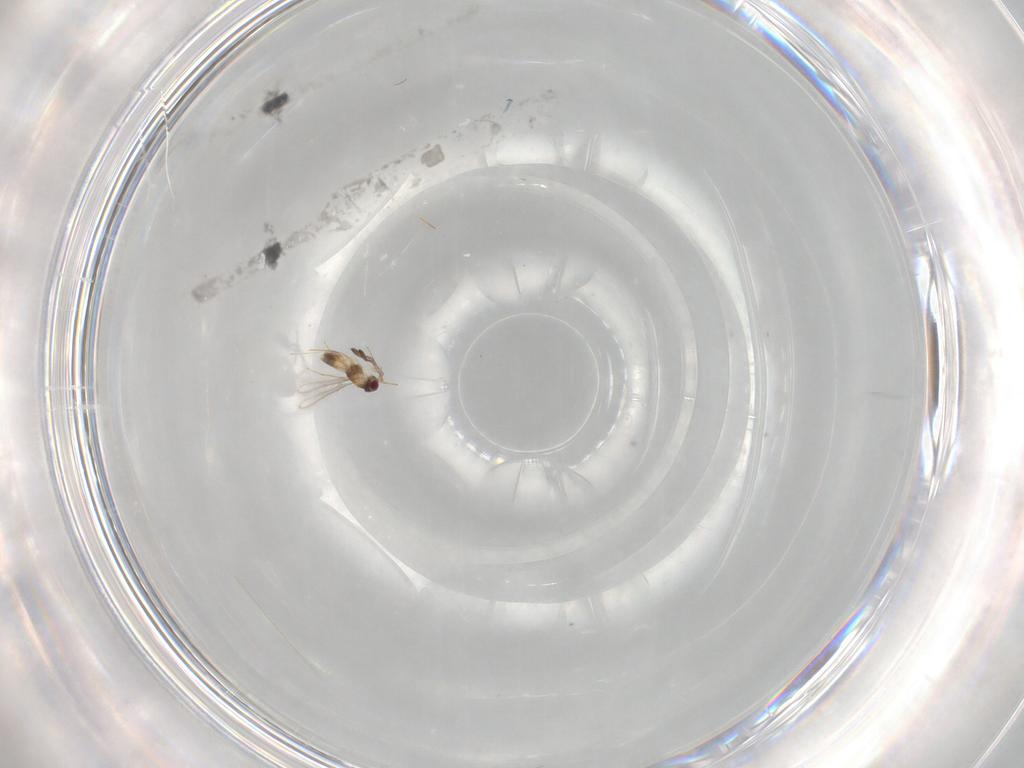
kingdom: Animalia
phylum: Arthropoda
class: Insecta
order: Hymenoptera
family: Mymaridae
